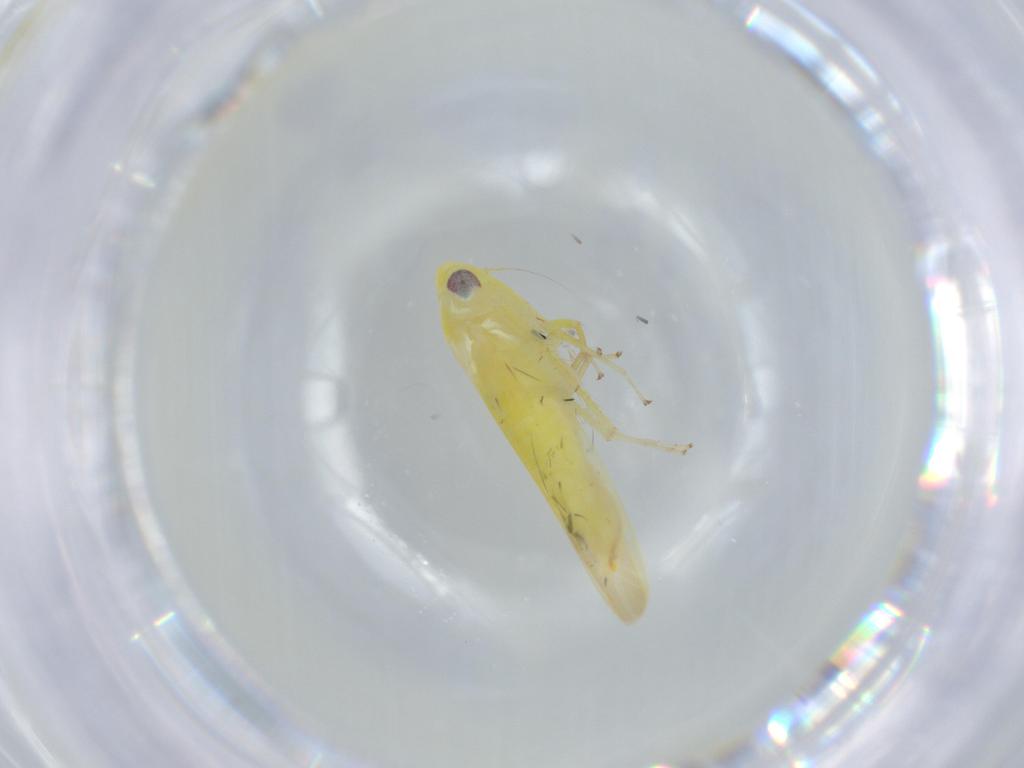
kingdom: Animalia
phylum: Arthropoda
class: Insecta
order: Hemiptera
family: Cicadellidae
